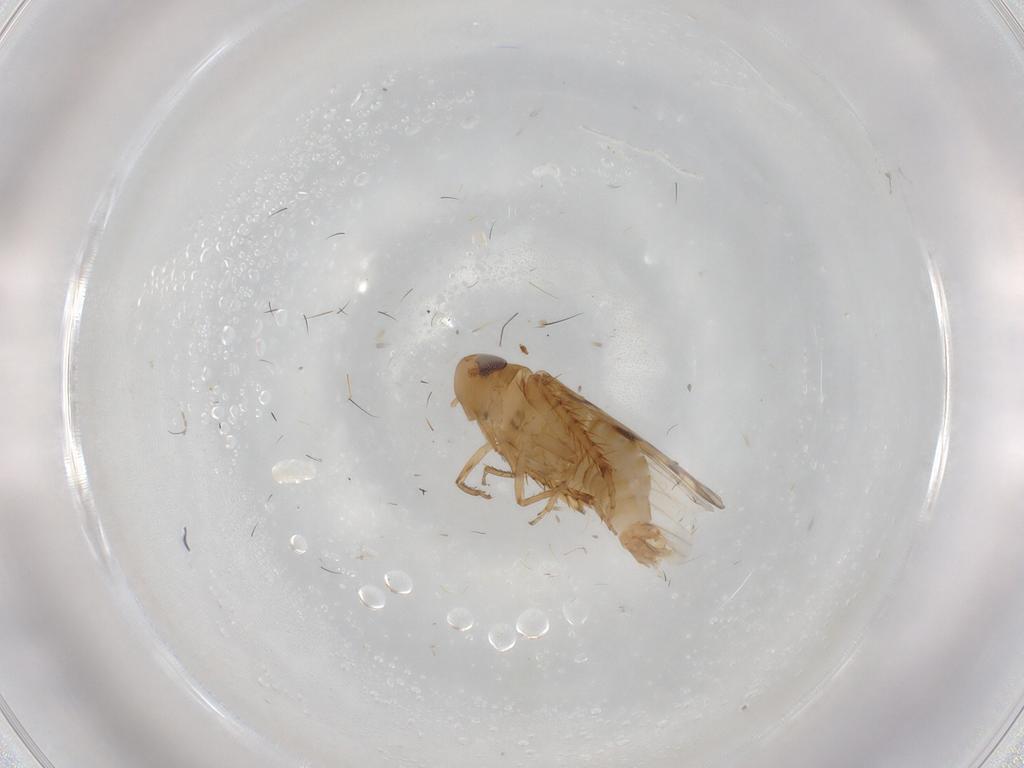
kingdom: Animalia
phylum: Arthropoda
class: Insecta
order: Hemiptera
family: Cicadellidae
